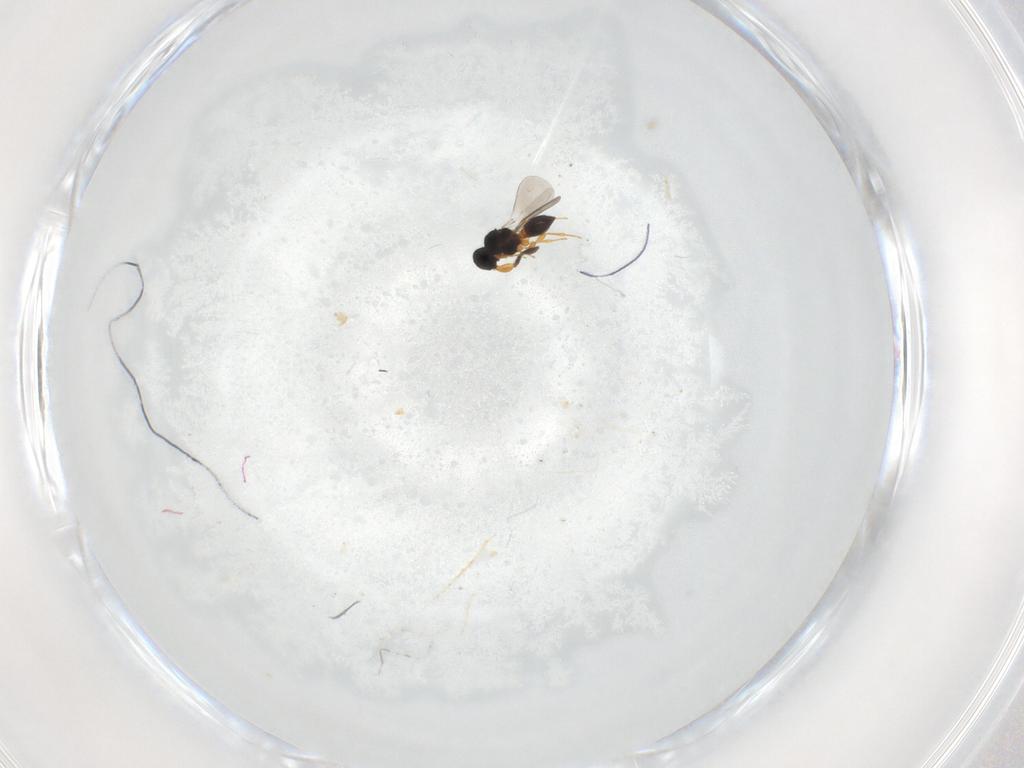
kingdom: Animalia
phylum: Arthropoda
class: Insecta
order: Hymenoptera
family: Platygastridae
